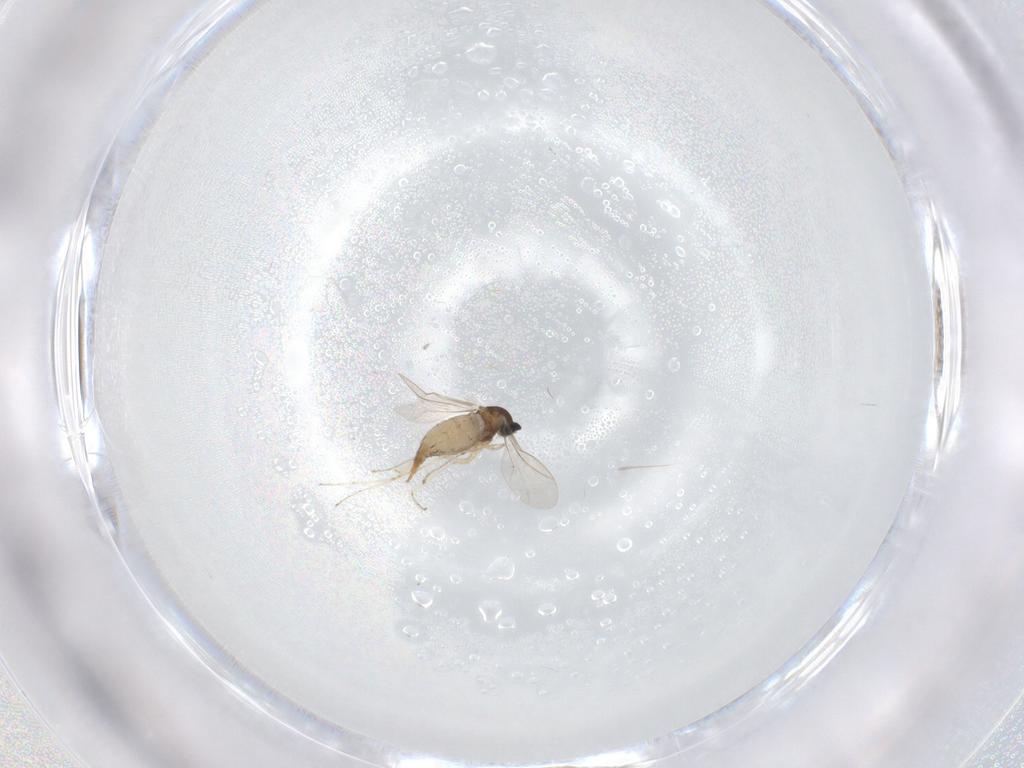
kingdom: Animalia
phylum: Arthropoda
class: Insecta
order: Diptera
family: Cecidomyiidae
